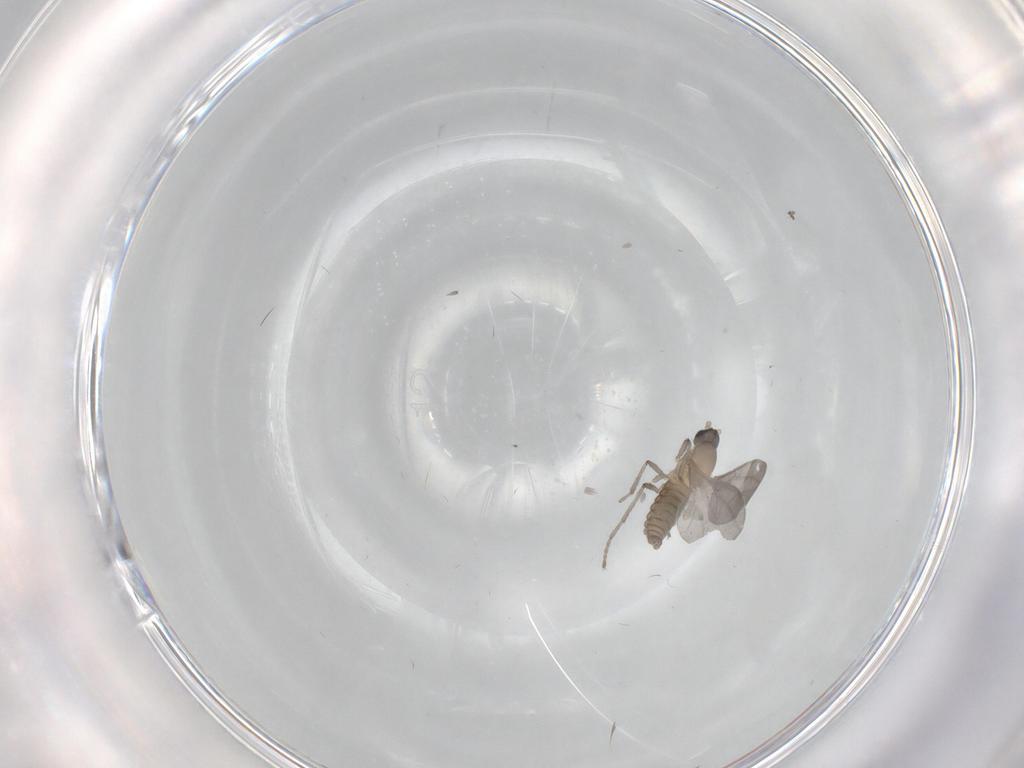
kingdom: Animalia
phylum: Arthropoda
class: Insecta
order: Diptera
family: Cecidomyiidae
